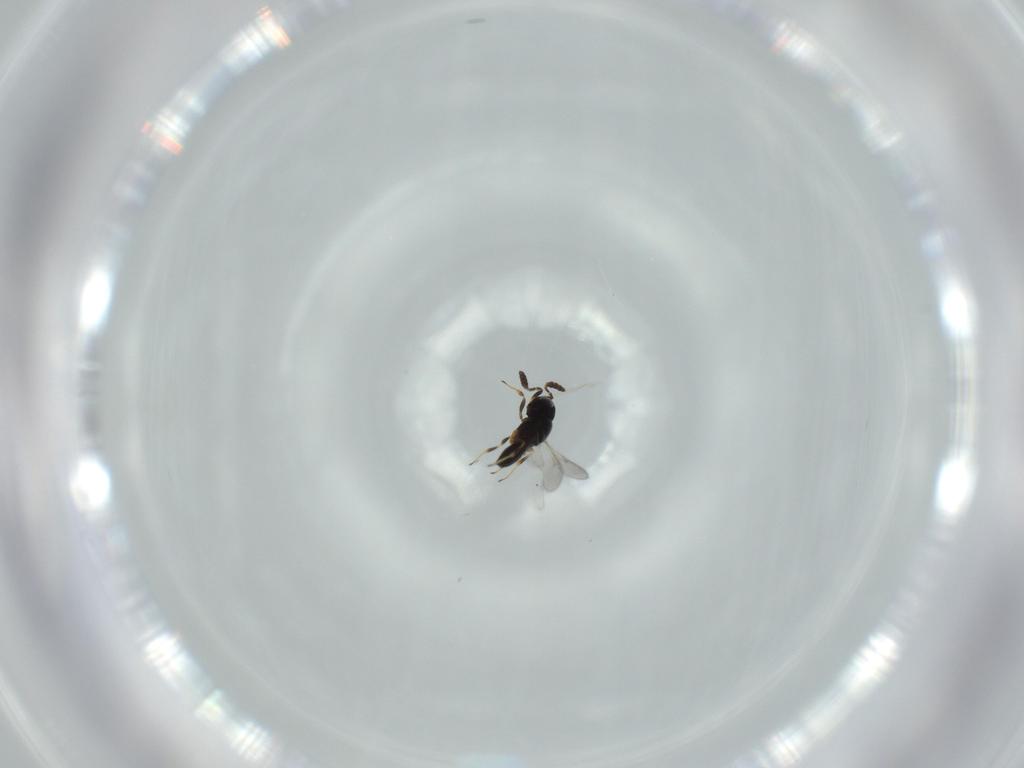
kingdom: Animalia
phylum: Arthropoda
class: Insecta
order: Hymenoptera
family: Scelionidae
